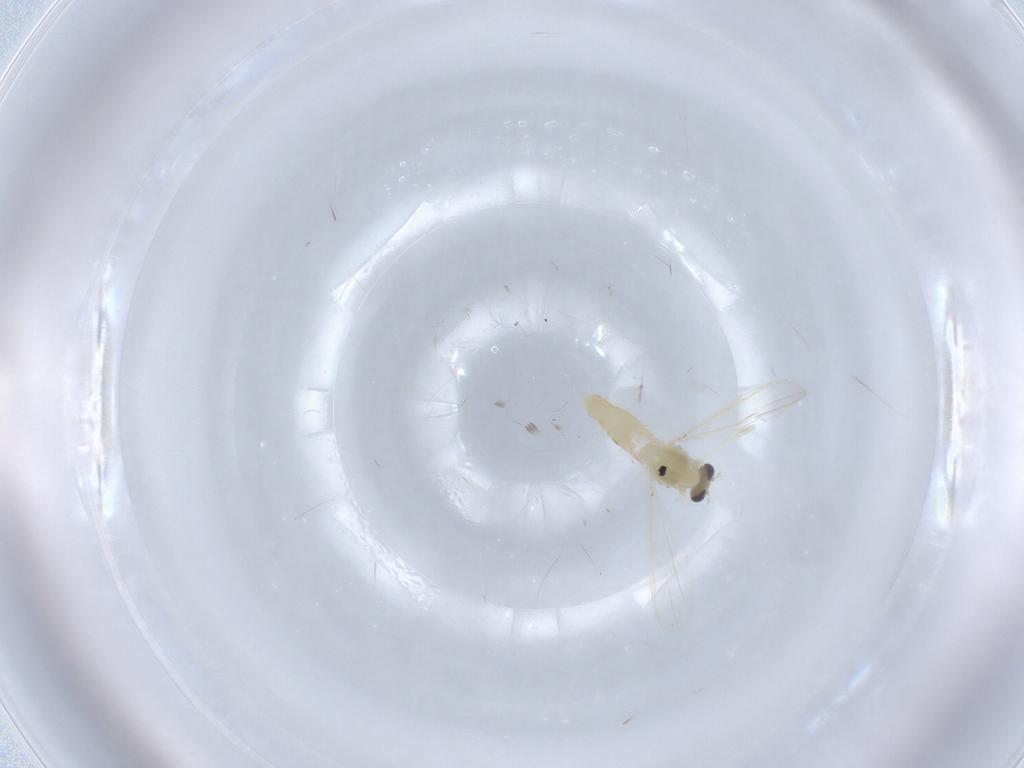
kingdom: Animalia
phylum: Arthropoda
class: Insecta
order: Diptera
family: Chironomidae
